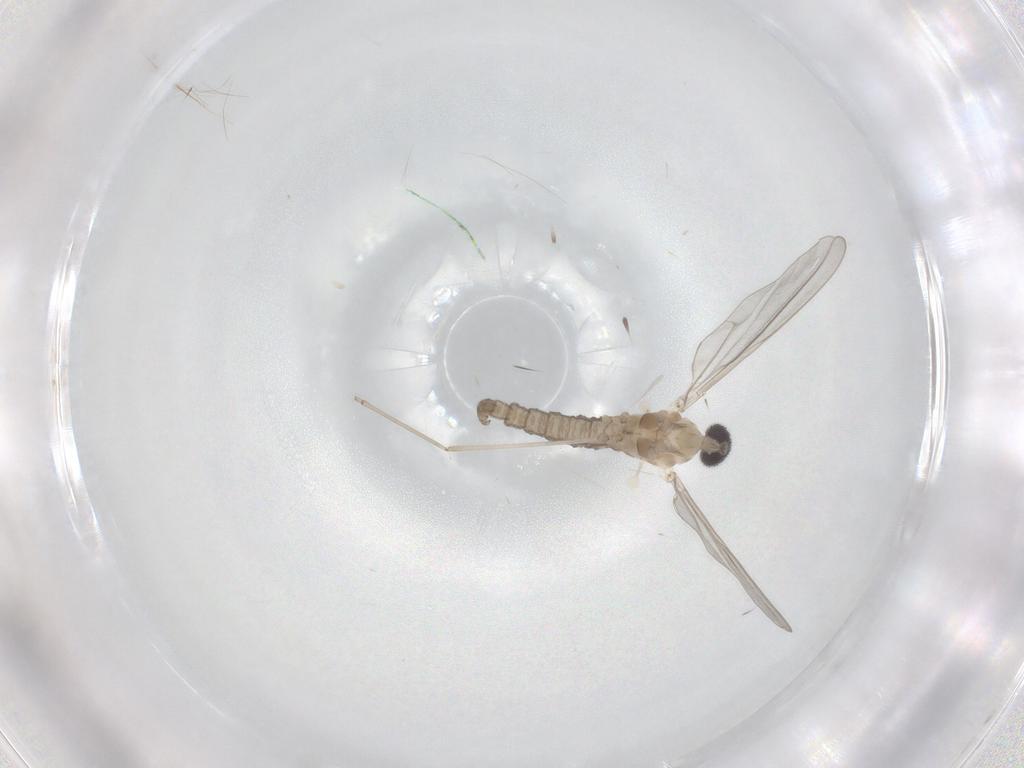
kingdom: Animalia
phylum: Arthropoda
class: Insecta
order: Diptera
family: Cecidomyiidae
